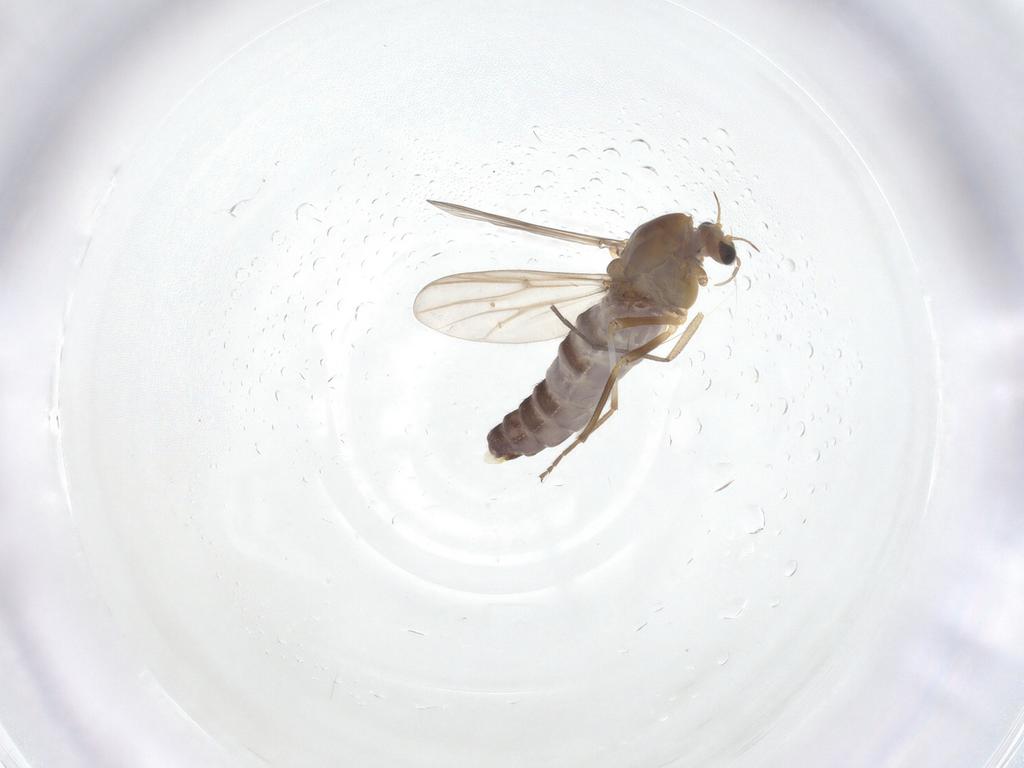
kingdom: Animalia
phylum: Arthropoda
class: Insecta
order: Diptera
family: Chironomidae
